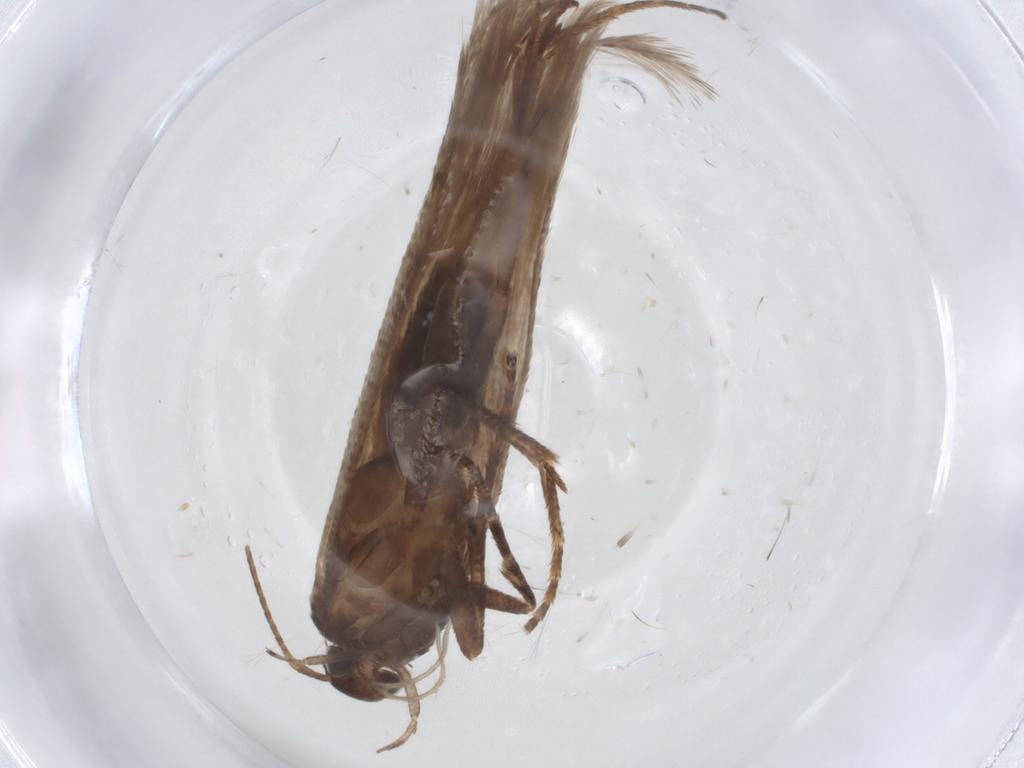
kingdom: Animalia
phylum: Arthropoda
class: Insecta
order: Lepidoptera
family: Gelechiidae
